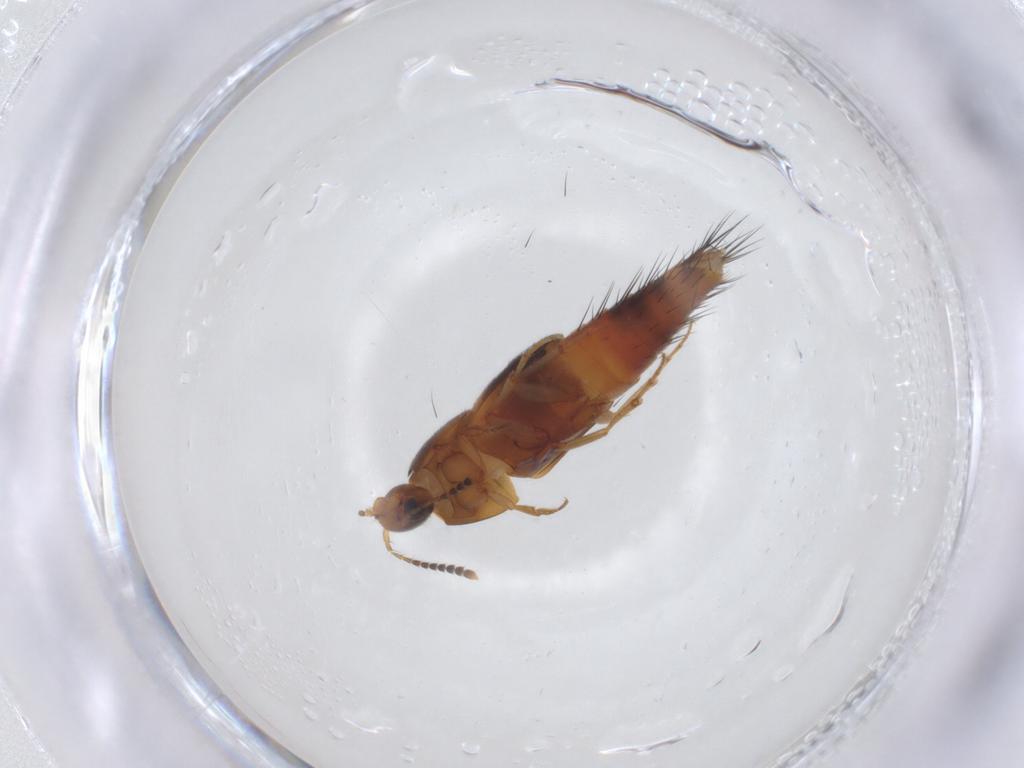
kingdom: Animalia
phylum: Arthropoda
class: Insecta
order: Coleoptera
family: Staphylinidae
